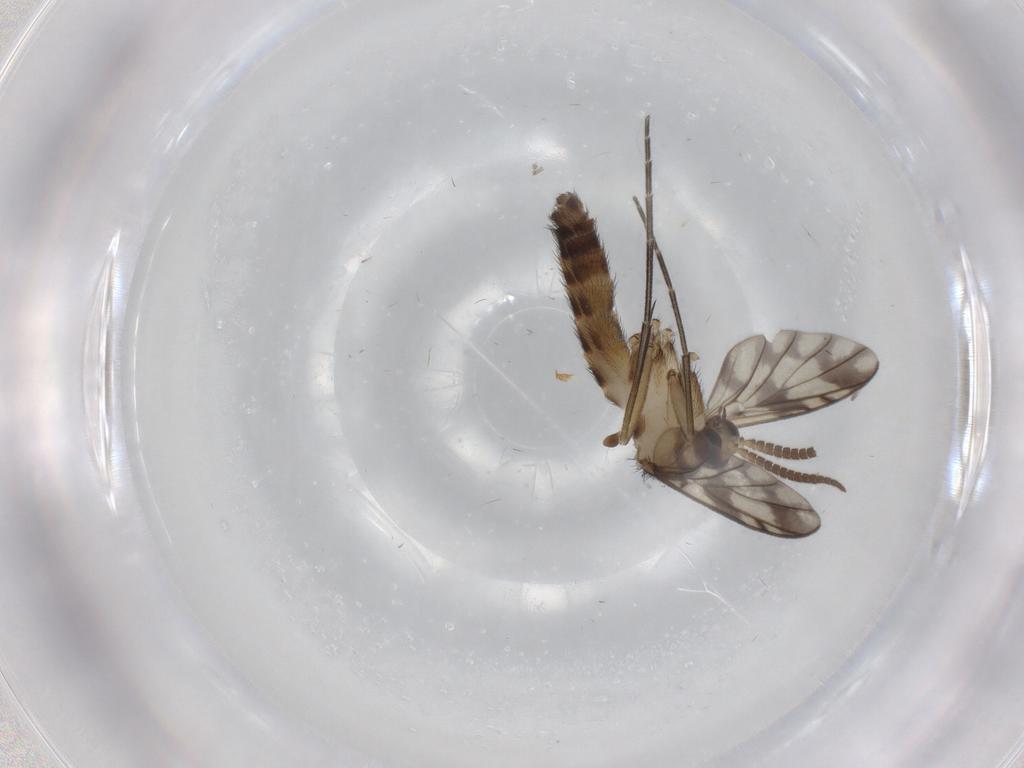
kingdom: Animalia
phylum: Arthropoda
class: Insecta
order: Diptera
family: Keroplatidae
